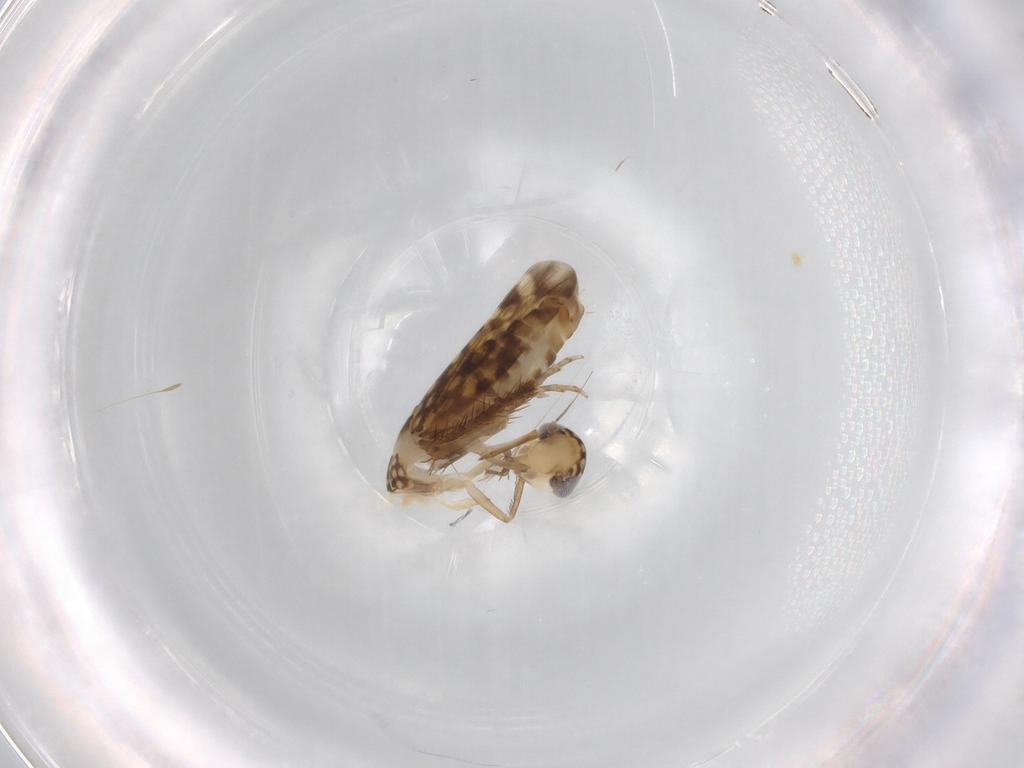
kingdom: Animalia
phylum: Arthropoda
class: Insecta
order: Hemiptera
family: Cicadellidae
